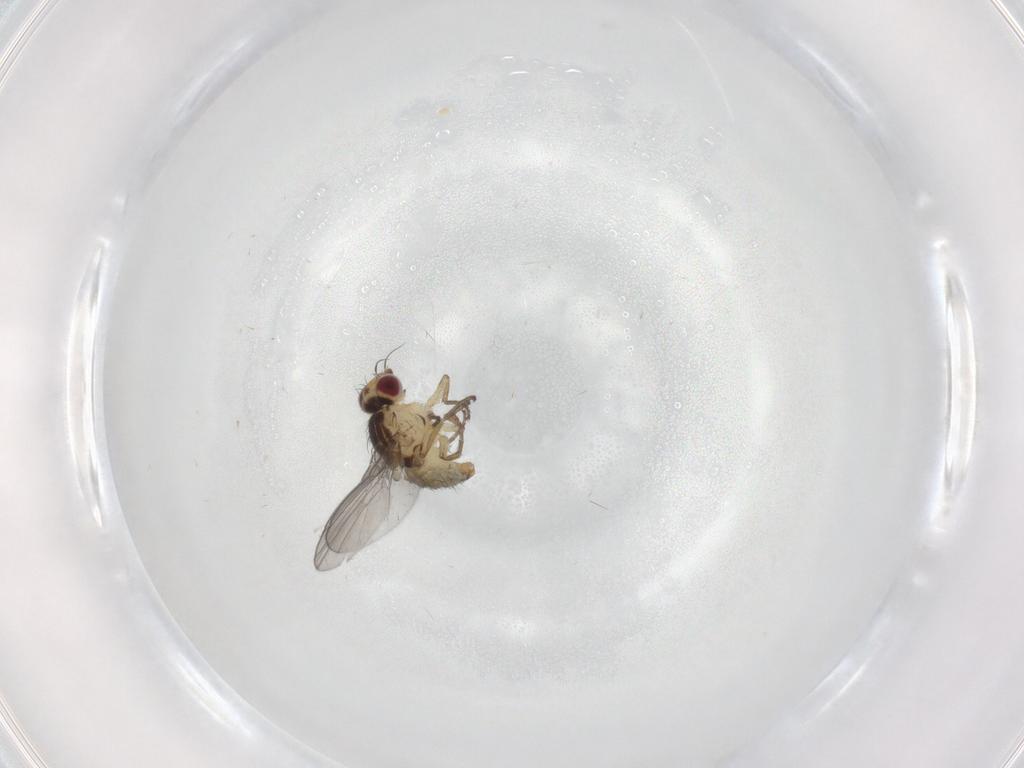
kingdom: Animalia
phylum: Arthropoda
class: Insecta
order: Diptera
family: Agromyzidae
